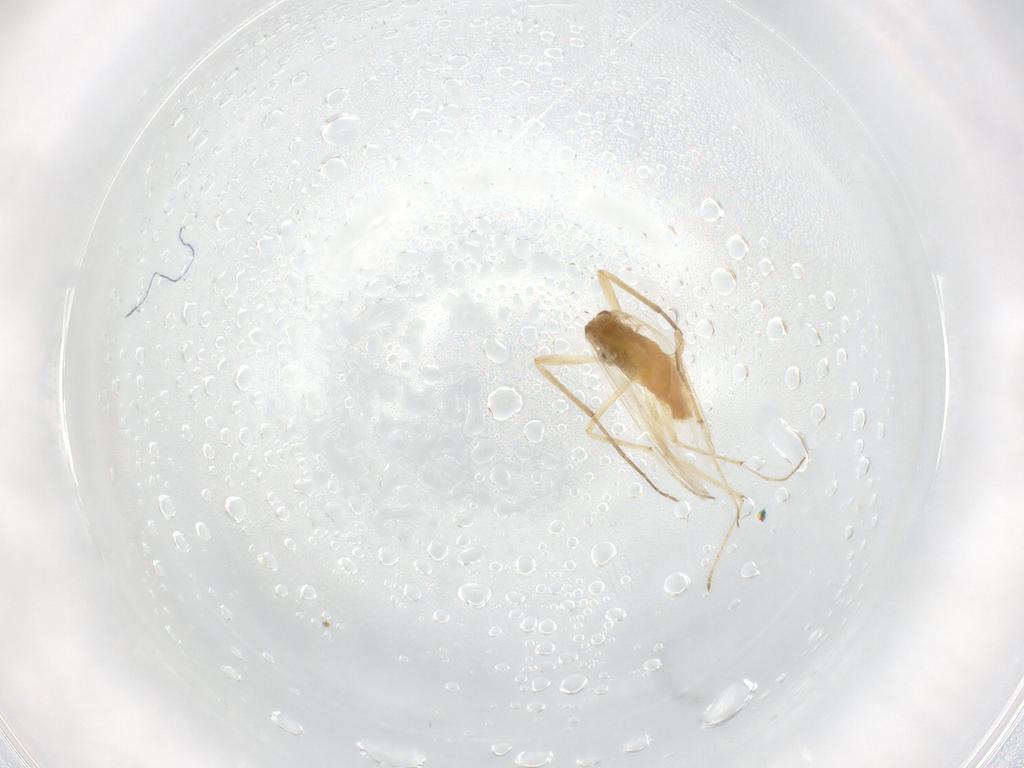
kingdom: Animalia
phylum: Arthropoda
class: Insecta
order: Diptera
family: Chironomidae
